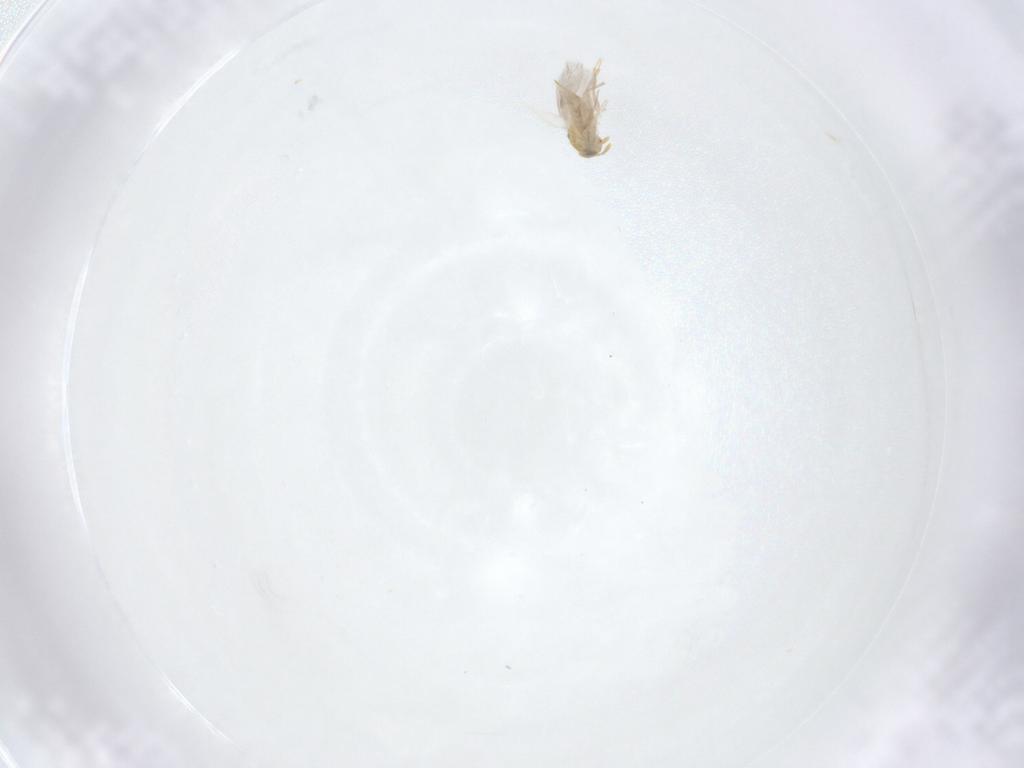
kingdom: Animalia
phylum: Arthropoda
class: Insecta
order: Hymenoptera
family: Aphelinidae
